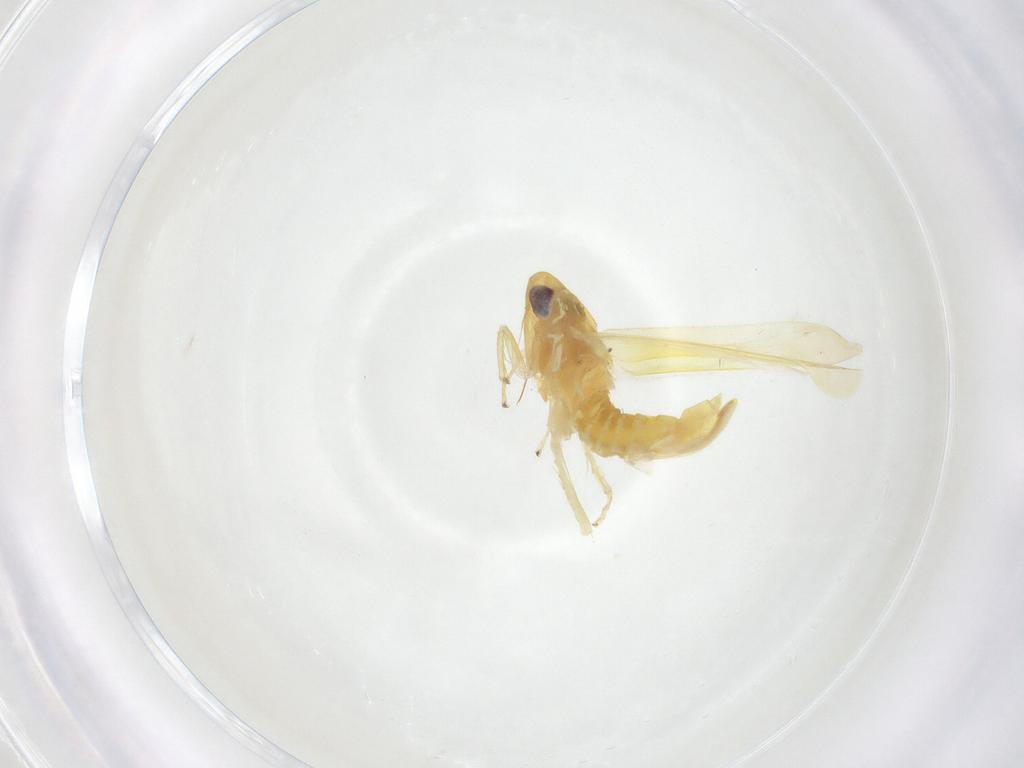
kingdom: Animalia
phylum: Arthropoda
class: Insecta
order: Hemiptera
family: Cicadellidae
